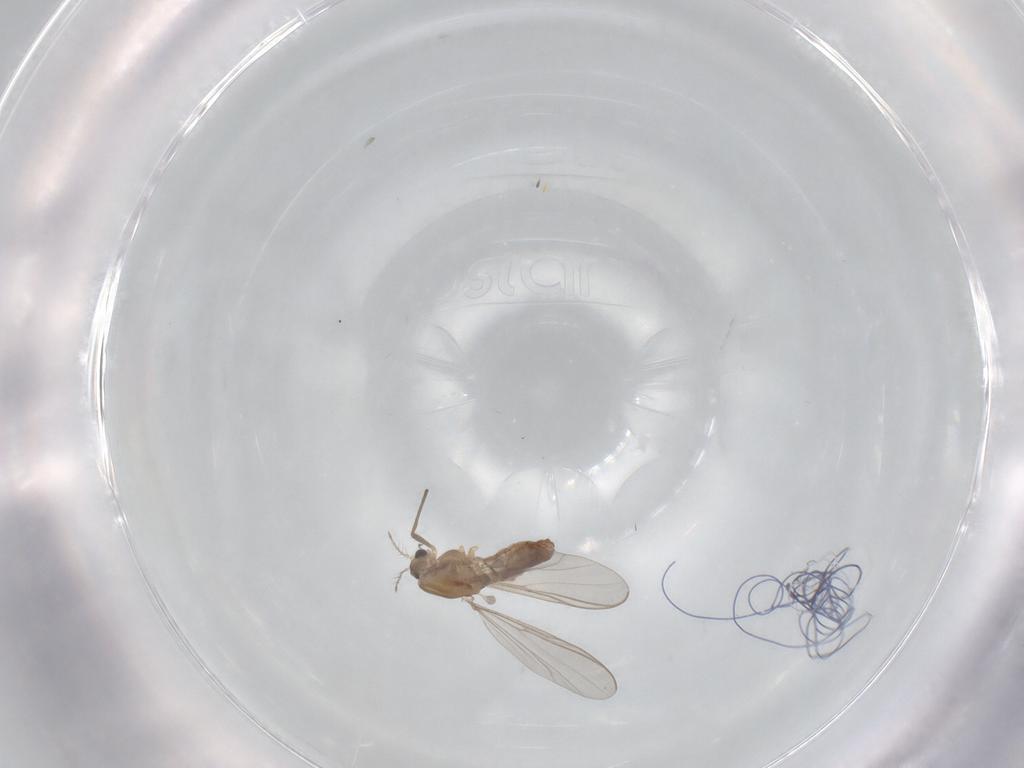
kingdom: Animalia
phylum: Arthropoda
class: Insecta
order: Diptera
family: Chironomidae
